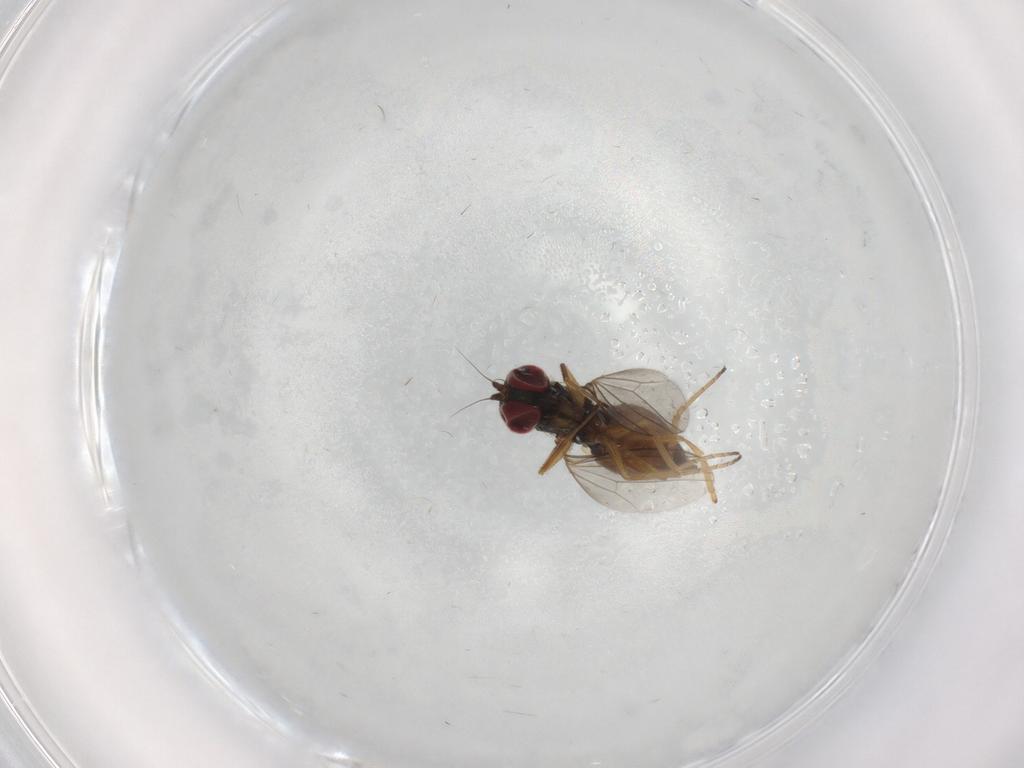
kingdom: Animalia
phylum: Arthropoda
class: Insecta
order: Diptera
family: Dolichopodidae
